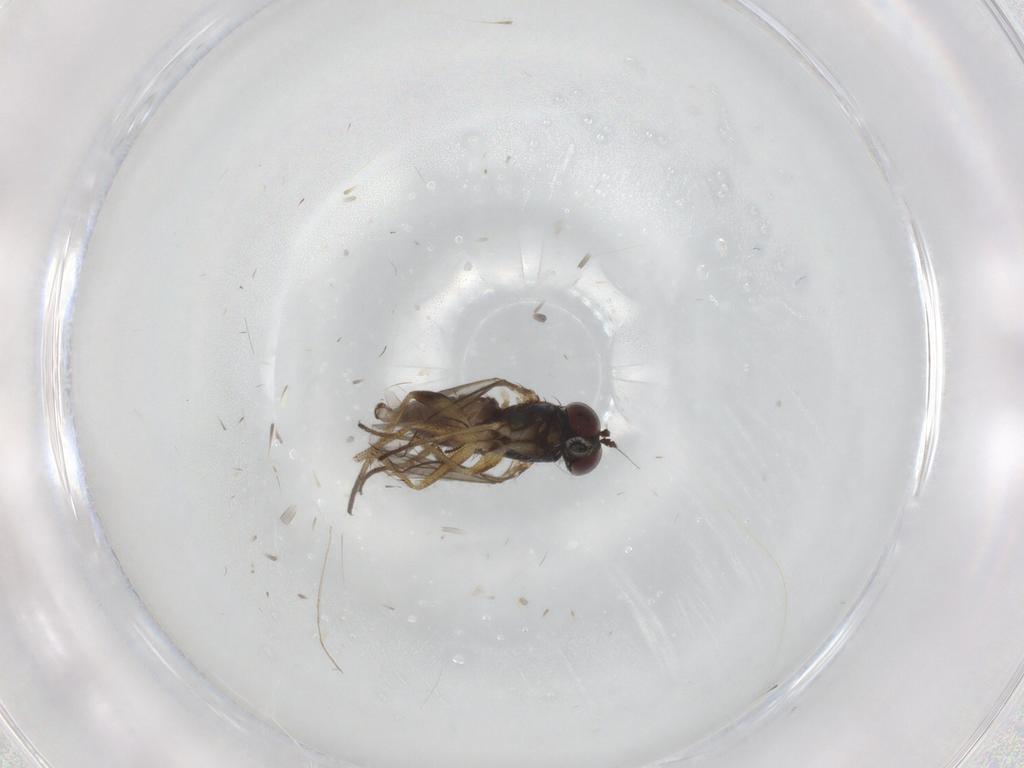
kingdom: Animalia
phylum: Arthropoda
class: Insecta
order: Diptera
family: Ceratopogonidae
